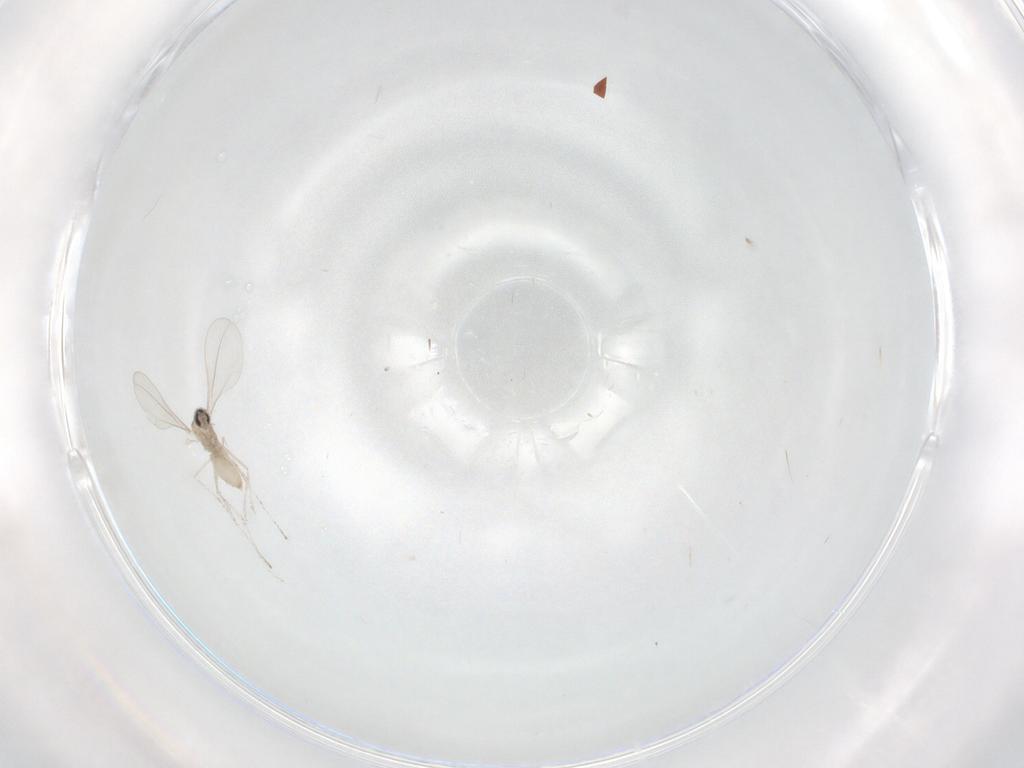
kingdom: Animalia
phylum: Arthropoda
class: Insecta
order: Diptera
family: Cecidomyiidae
